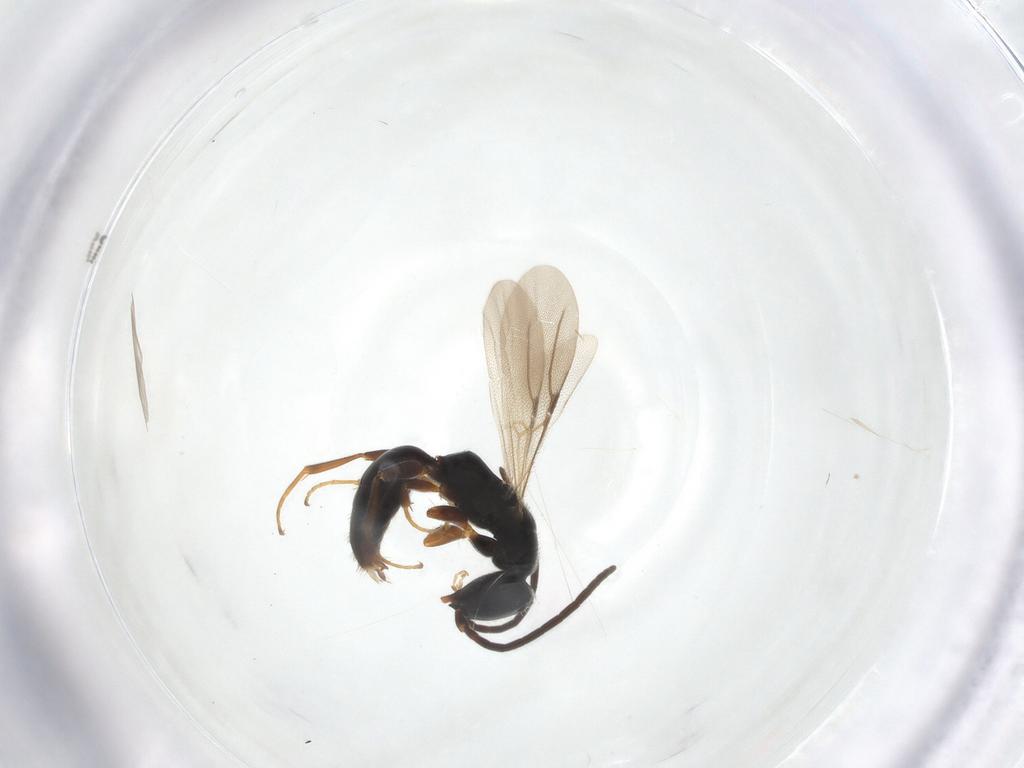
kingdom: Animalia
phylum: Arthropoda
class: Insecta
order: Hymenoptera
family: Bethylidae
